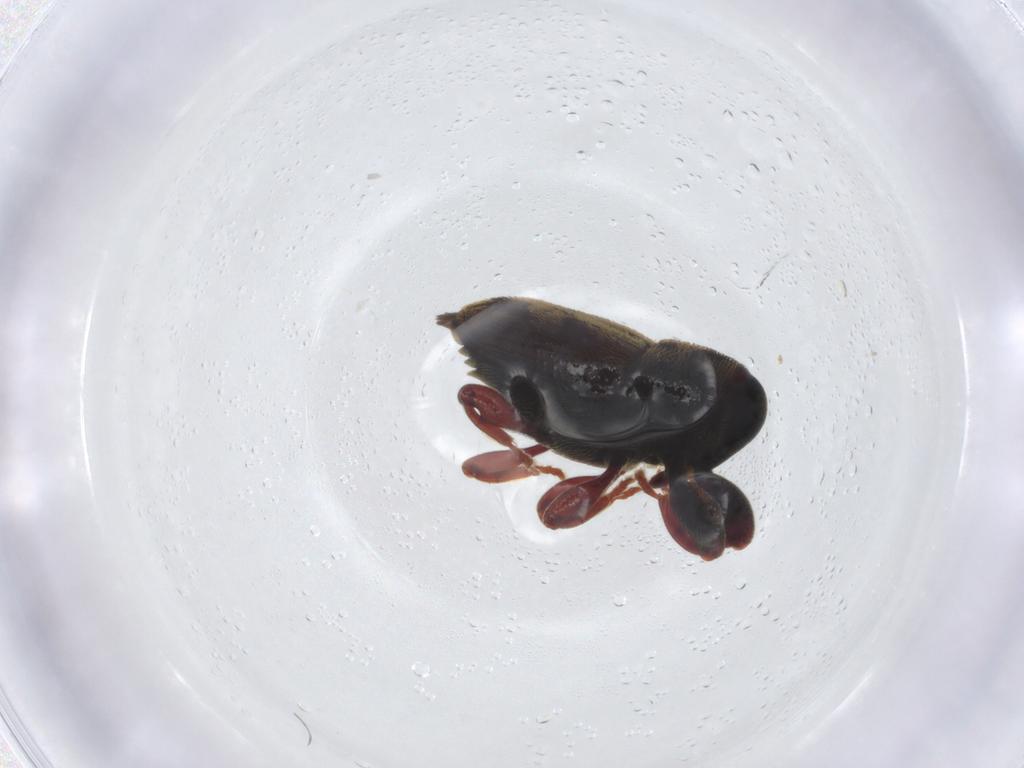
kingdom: Animalia
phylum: Arthropoda
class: Insecta
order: Coleoptera
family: Curculionidae
